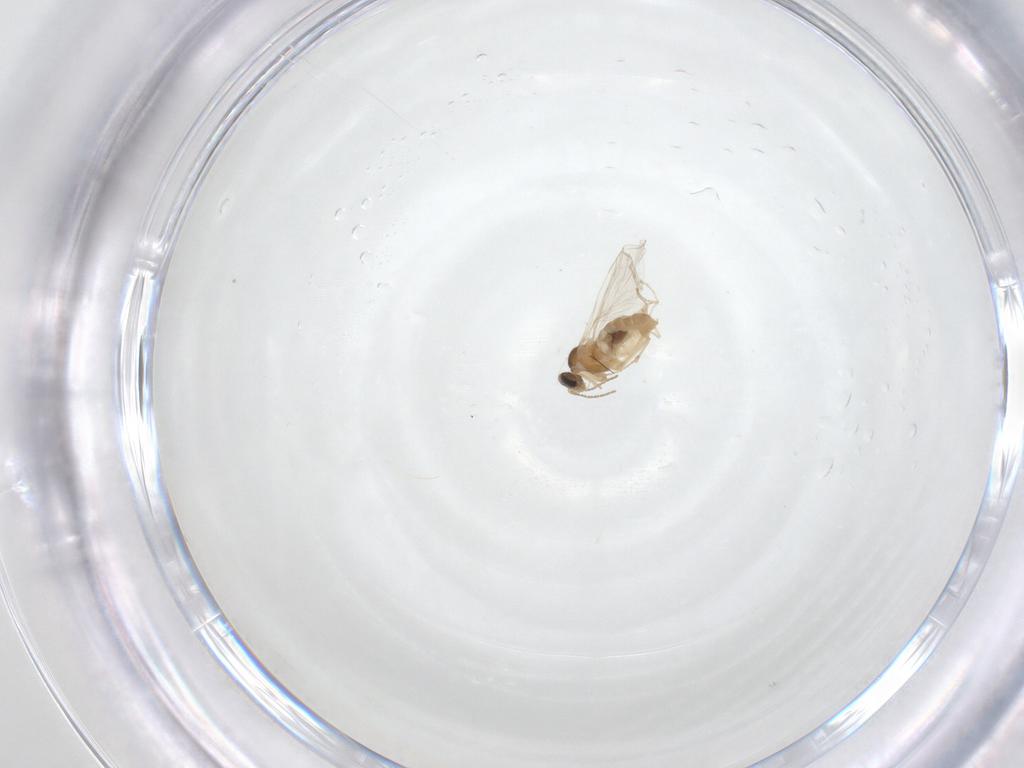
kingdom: Animalia
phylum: Arthropoda
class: Insecta
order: Diptera
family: Cecidomyiidae
